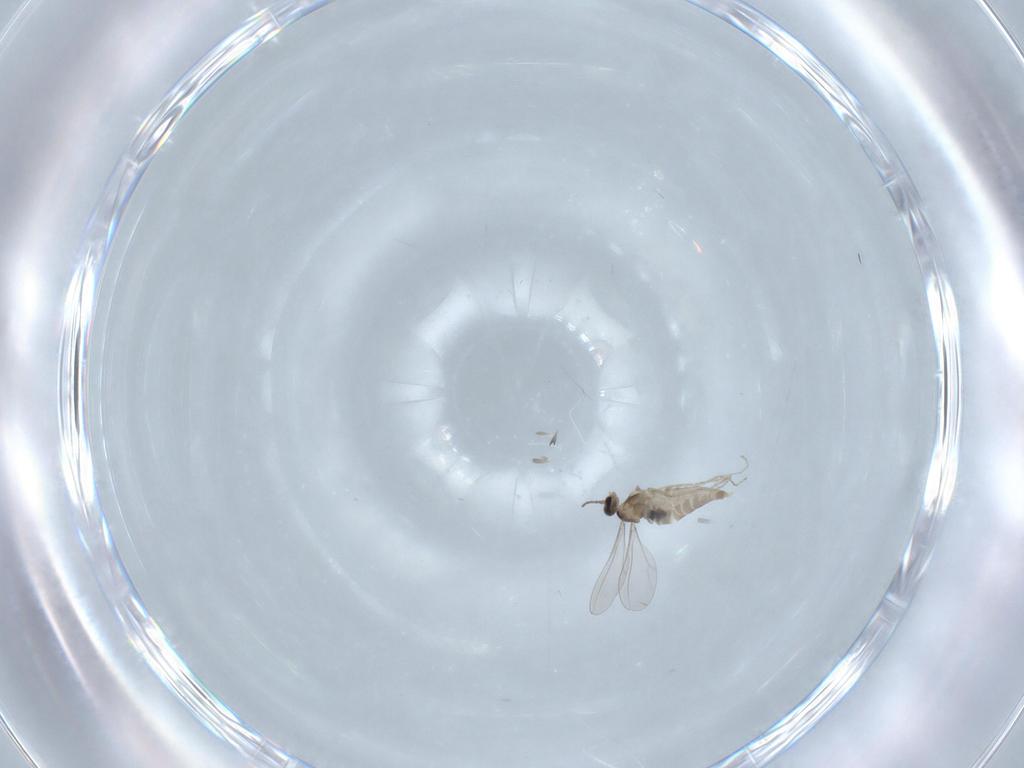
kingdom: Animalia
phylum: Arthropoda
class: Insecta
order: Diptera
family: Cecidomyiidae
